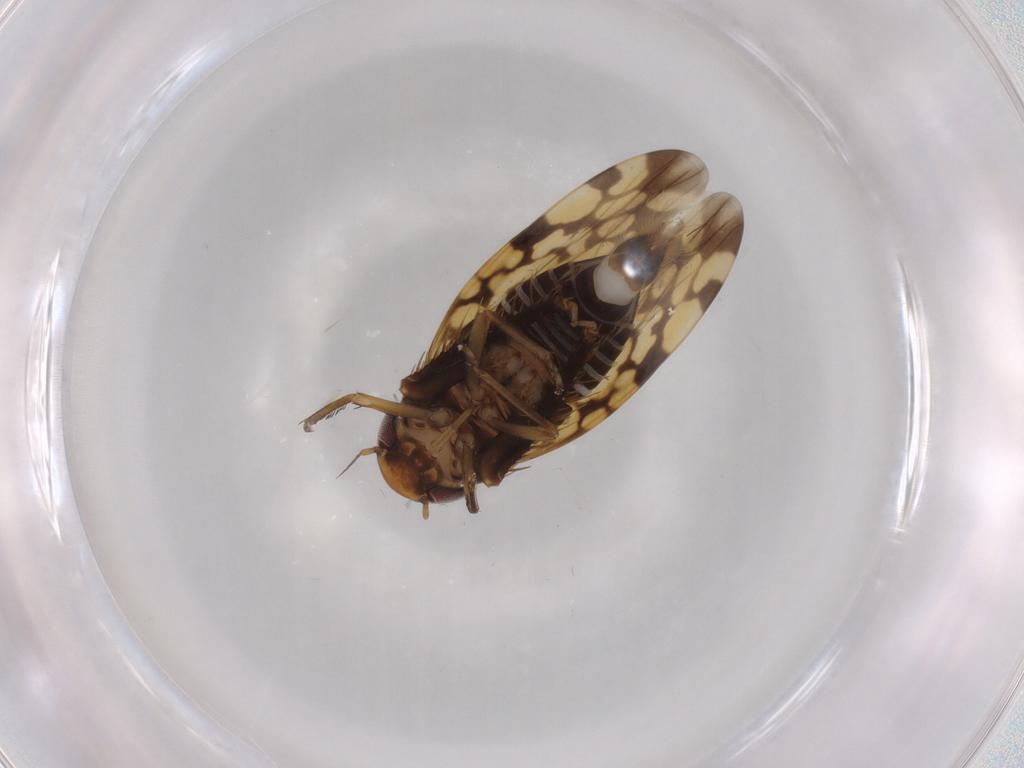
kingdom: Animalia
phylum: Arthropoda
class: Insecta
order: Hemiptera
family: Cicadellidae
